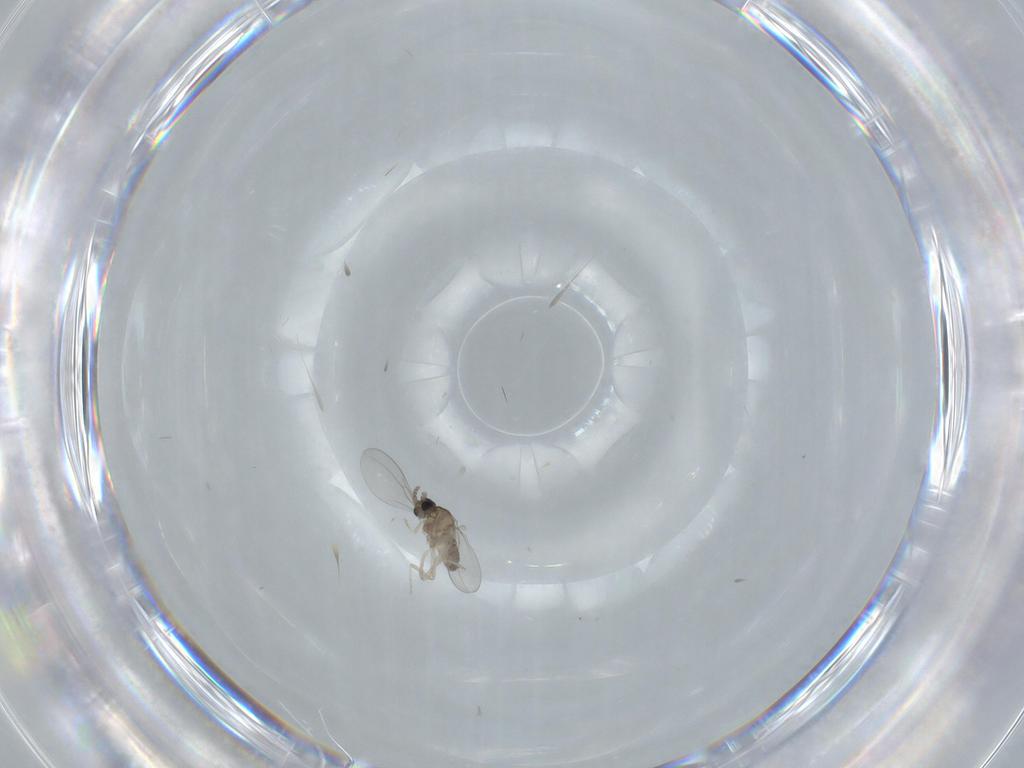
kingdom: Animalia
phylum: Arthropoda
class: Insecta
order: Diptera
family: Cecidomyiidae
